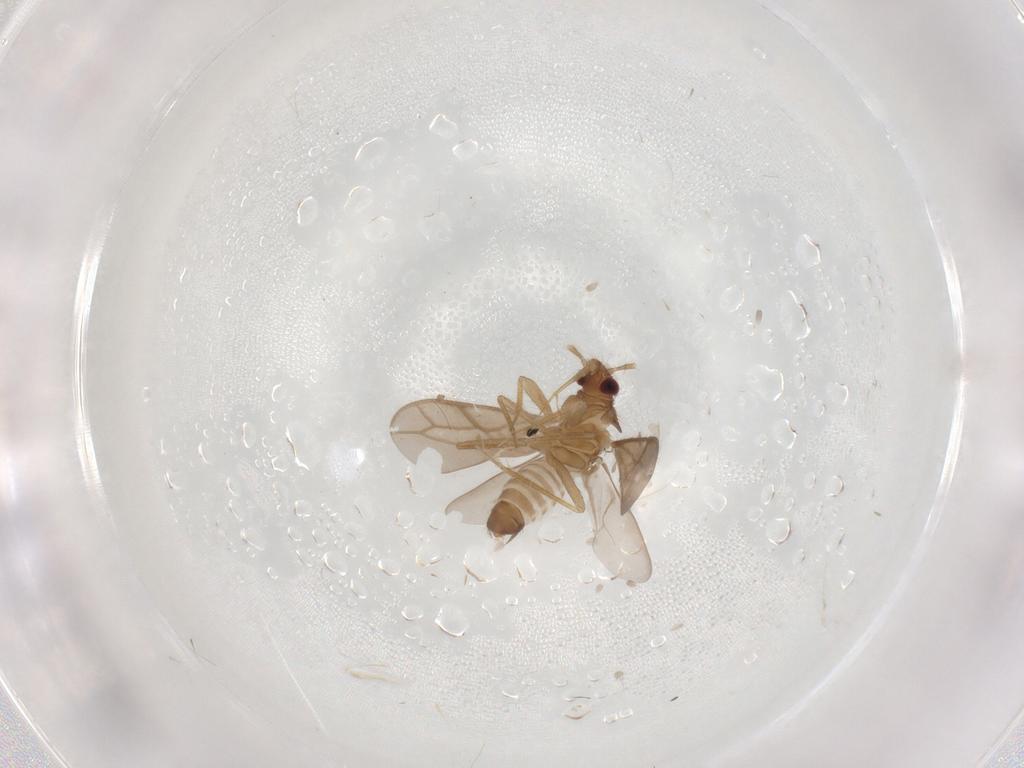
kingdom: Animalia
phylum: Arthropoda
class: Insecta
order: Hemiptera
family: Ceratocombidae
